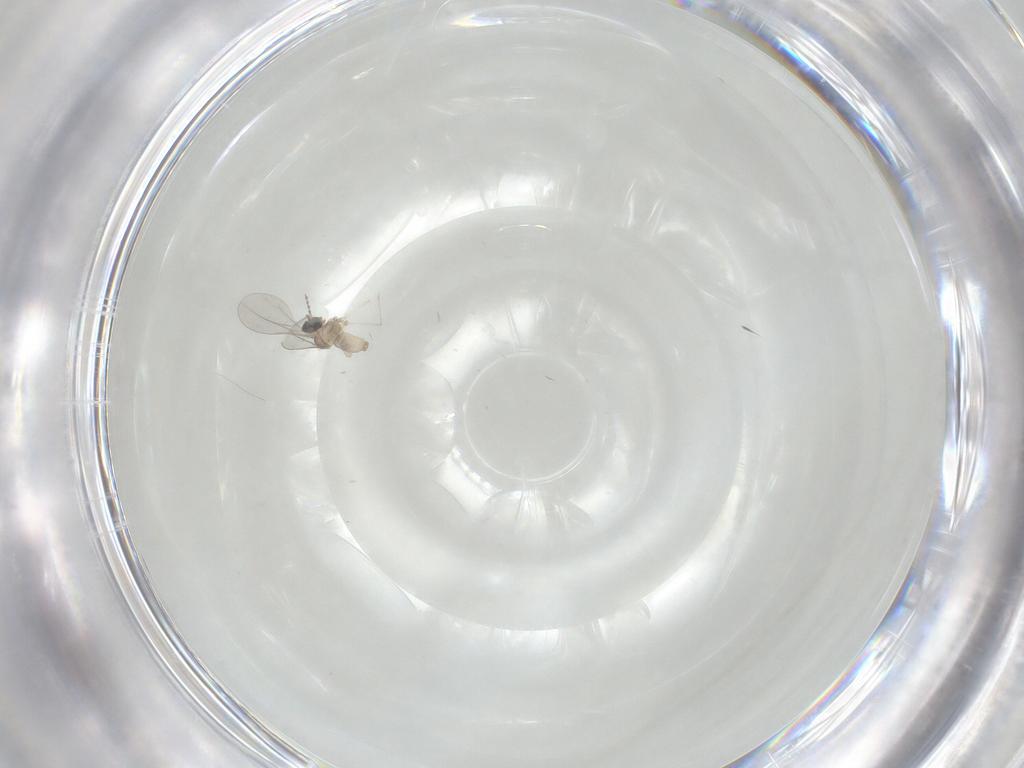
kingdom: Animalia
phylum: Arthropoda
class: Insecta
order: Diptera
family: Cecidomyiidae
